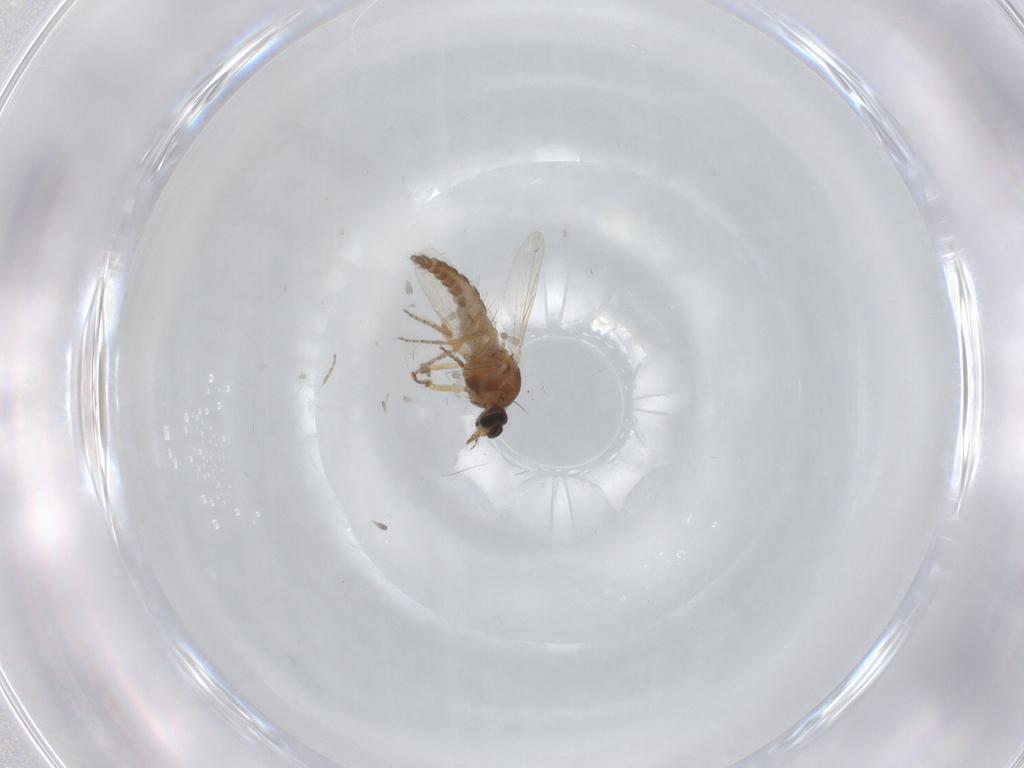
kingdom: Animalia
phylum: Arthropoda
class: Insecta
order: Diptera
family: Ceratopogonidae
